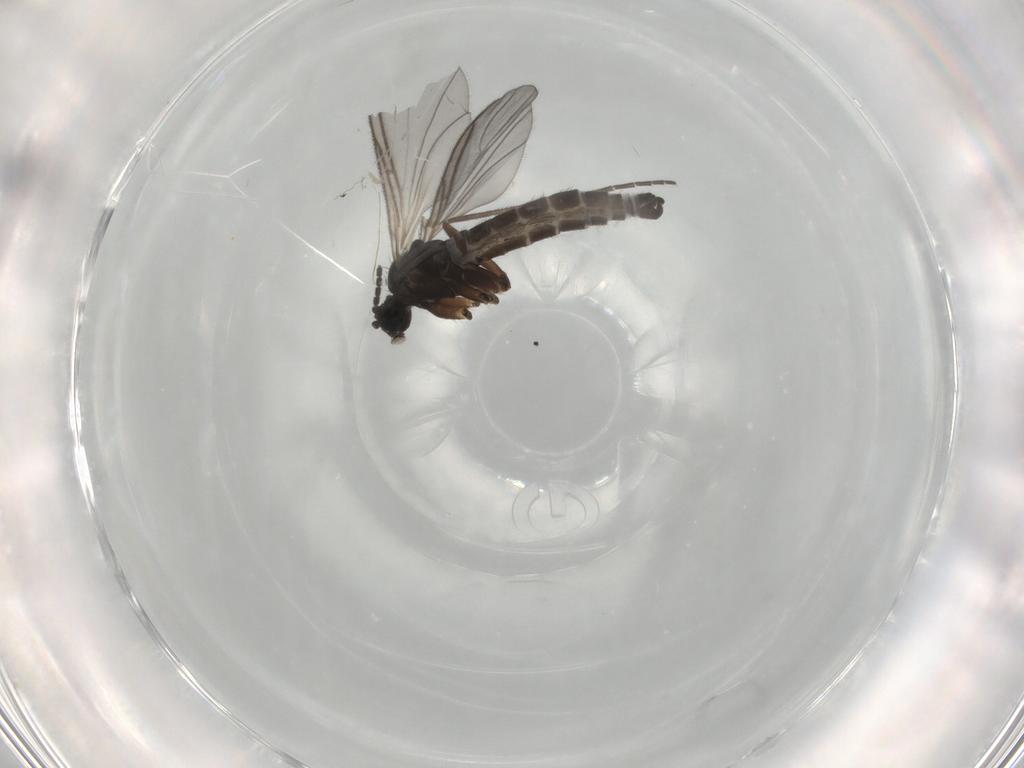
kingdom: Animalia
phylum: Arthropoda
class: Insecta
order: Diptera
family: Sciaridae
